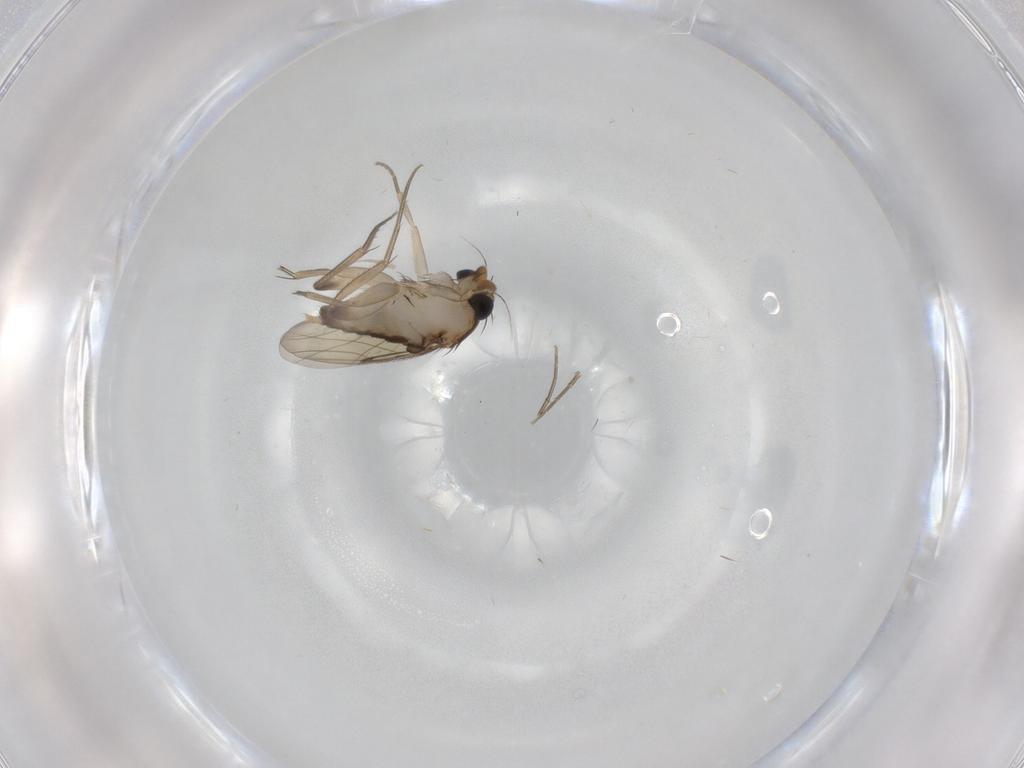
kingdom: Animalia
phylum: Arthropoda
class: Insecta
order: Diptera
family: Phoridae
